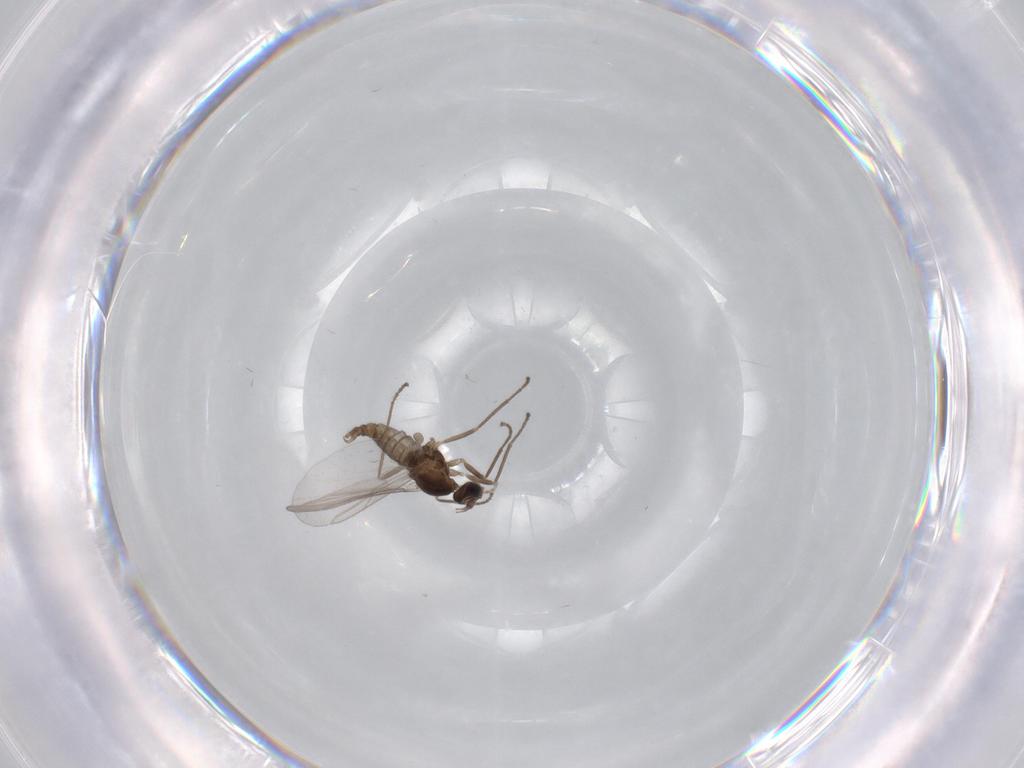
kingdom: Animalia
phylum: Arthropoda
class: Insecta
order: Diptera
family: Cecidomyiidae
